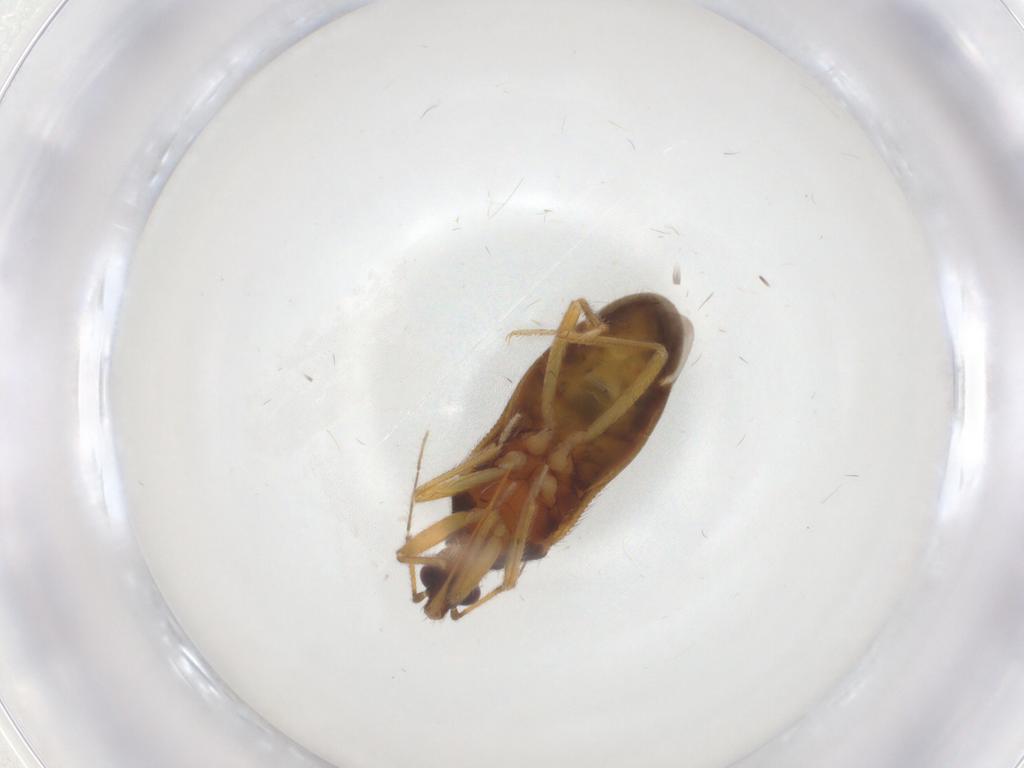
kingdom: Animalia
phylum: Arthropoda
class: Insecta
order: Hemiptera
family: Anthocoridae
